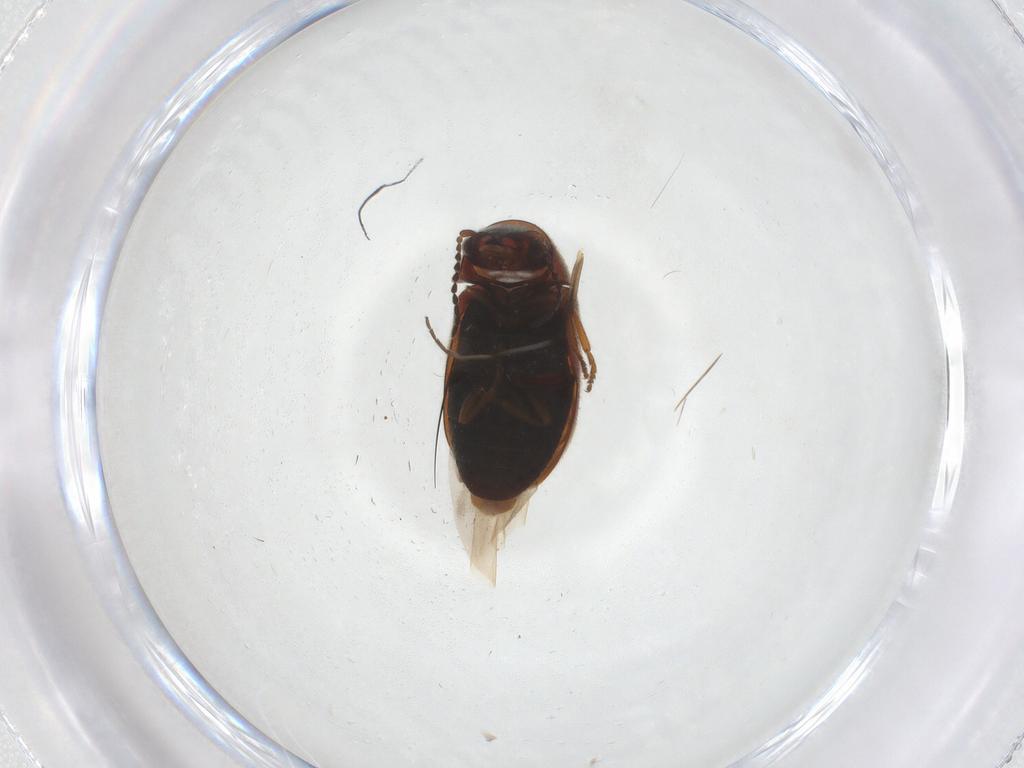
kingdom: Animalia
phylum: Arthropoda
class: Insecta
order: Coleoptera
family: Ptinidae
